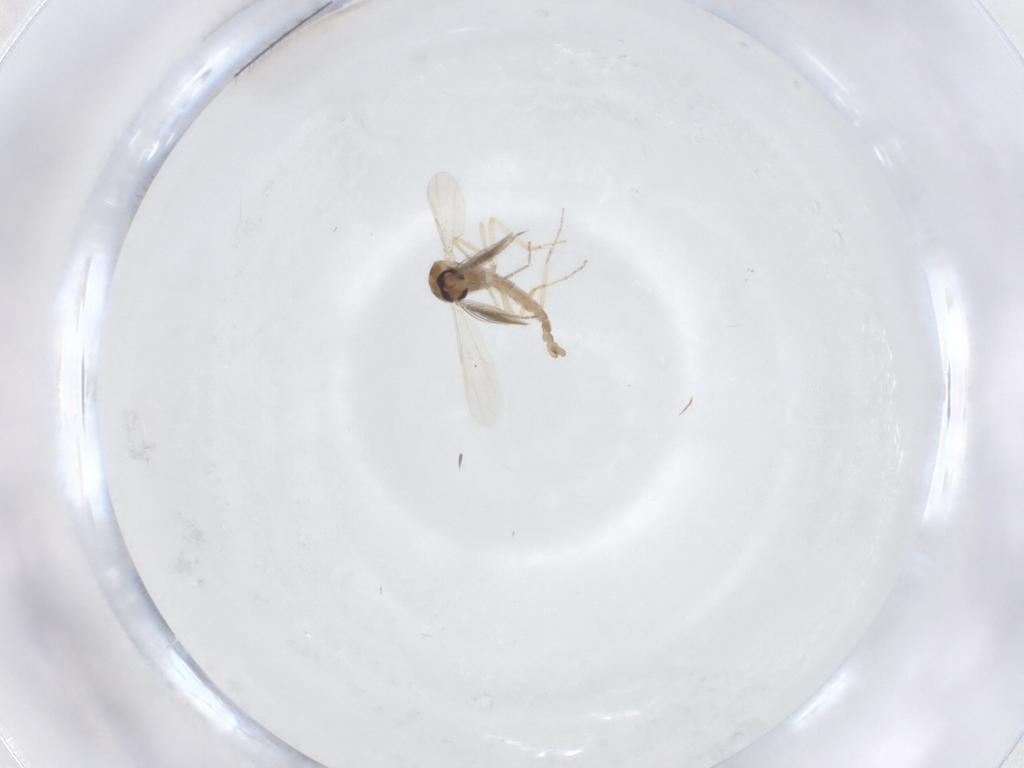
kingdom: Animalia
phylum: Arthropoda
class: Insecta
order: Diptera
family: Ceratopogonidae
